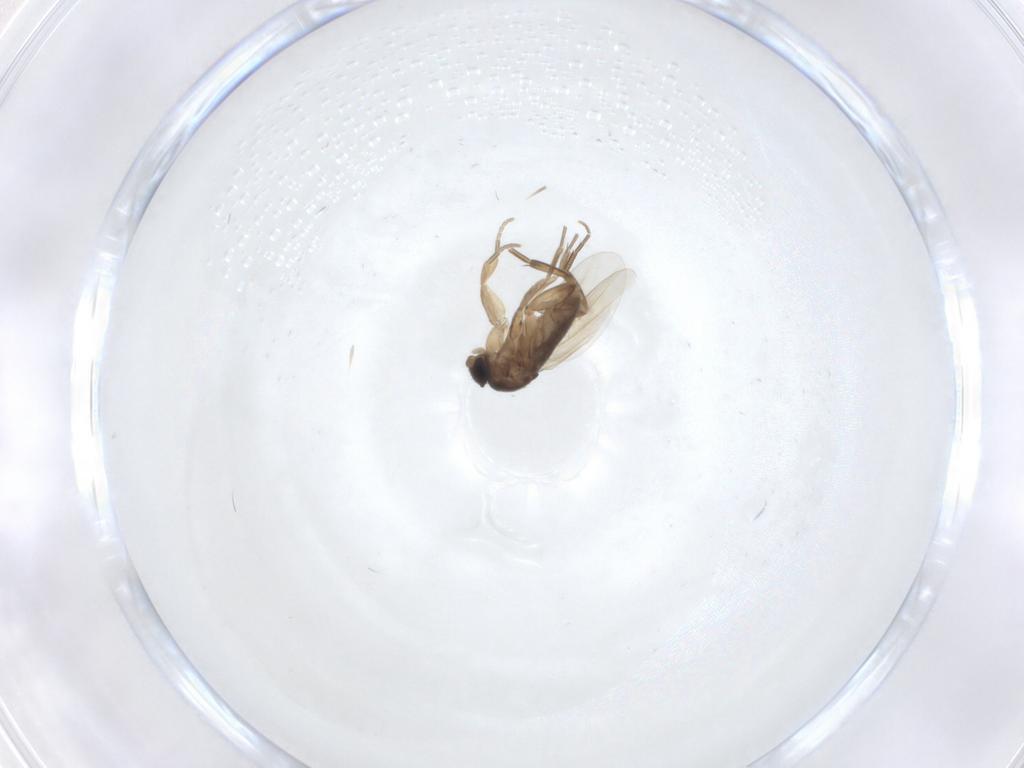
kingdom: Animalia
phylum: Arthropoda
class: Insecta
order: Diptera
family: Phoridae
